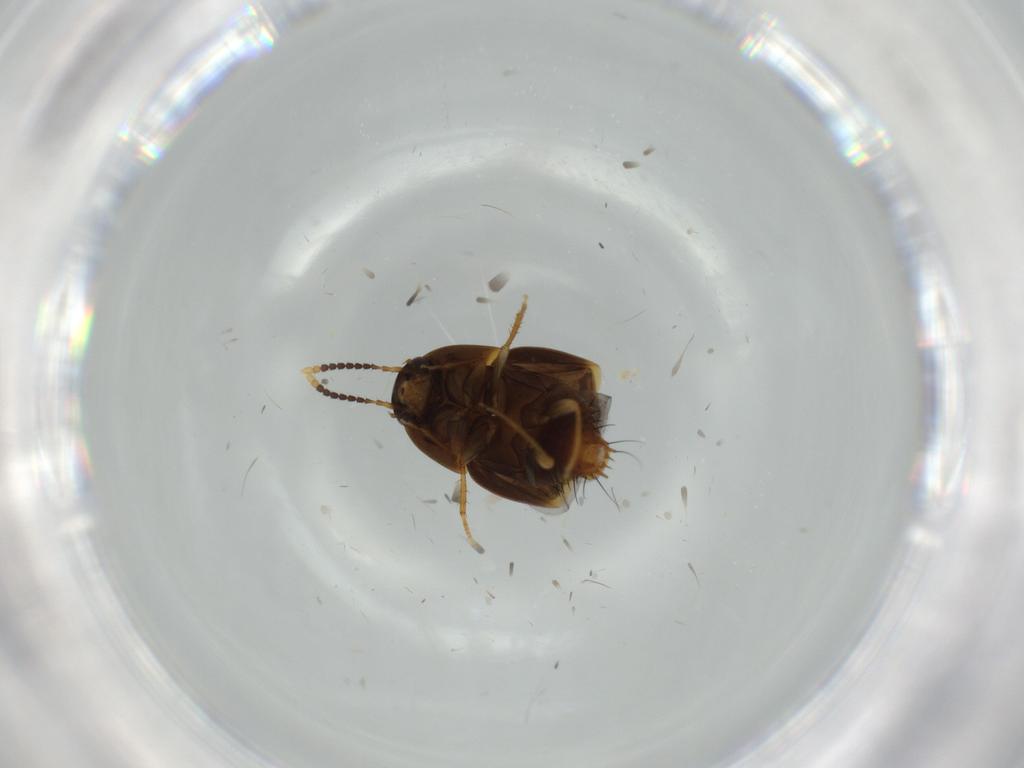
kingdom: Animalia
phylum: Arthropoda
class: Insecta
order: Coleoptera
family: Staphylinidae
